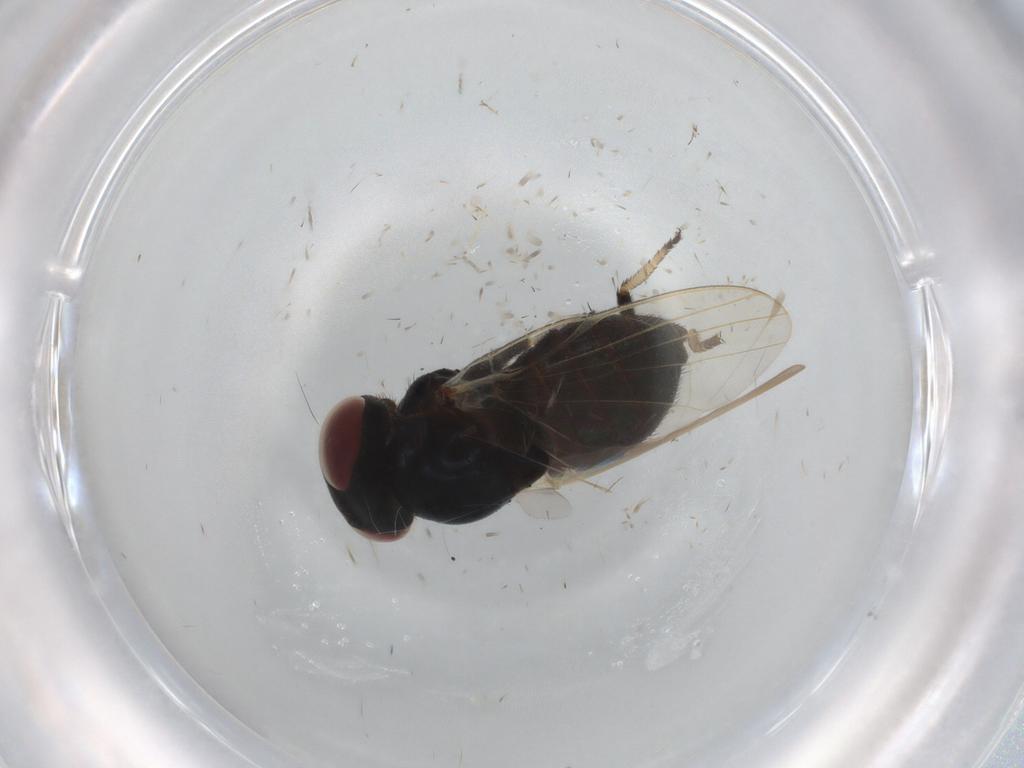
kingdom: Animalia
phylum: Arthropoda
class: Insecta
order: Diptera
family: Lonchaeidae
